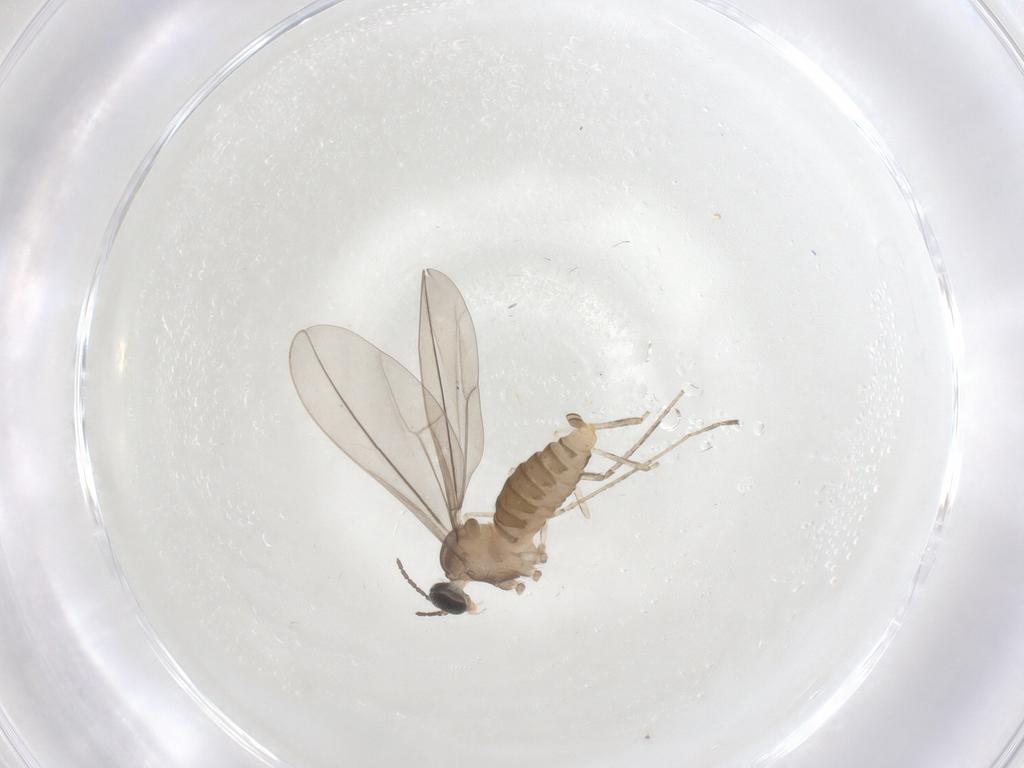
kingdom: Animalia
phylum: Arthropoda
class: Insecta
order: Diptera
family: Cecidomyiidae
